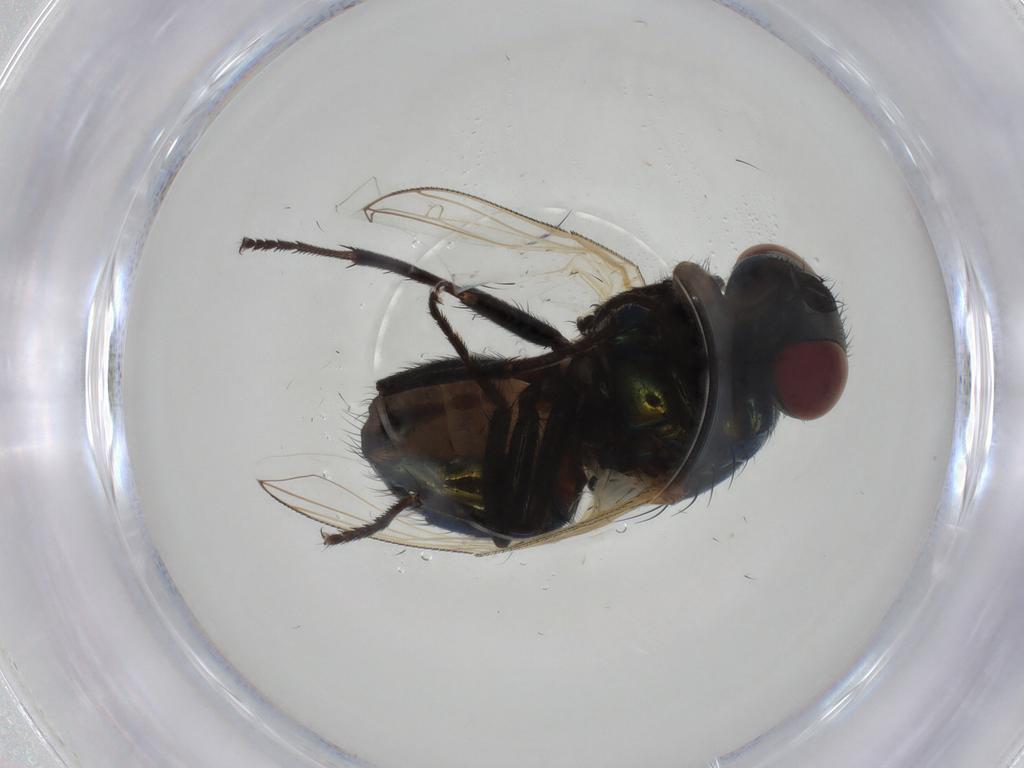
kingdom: Animalia
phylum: Arthropoda
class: Insecta
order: Diptera
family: Muscidae
